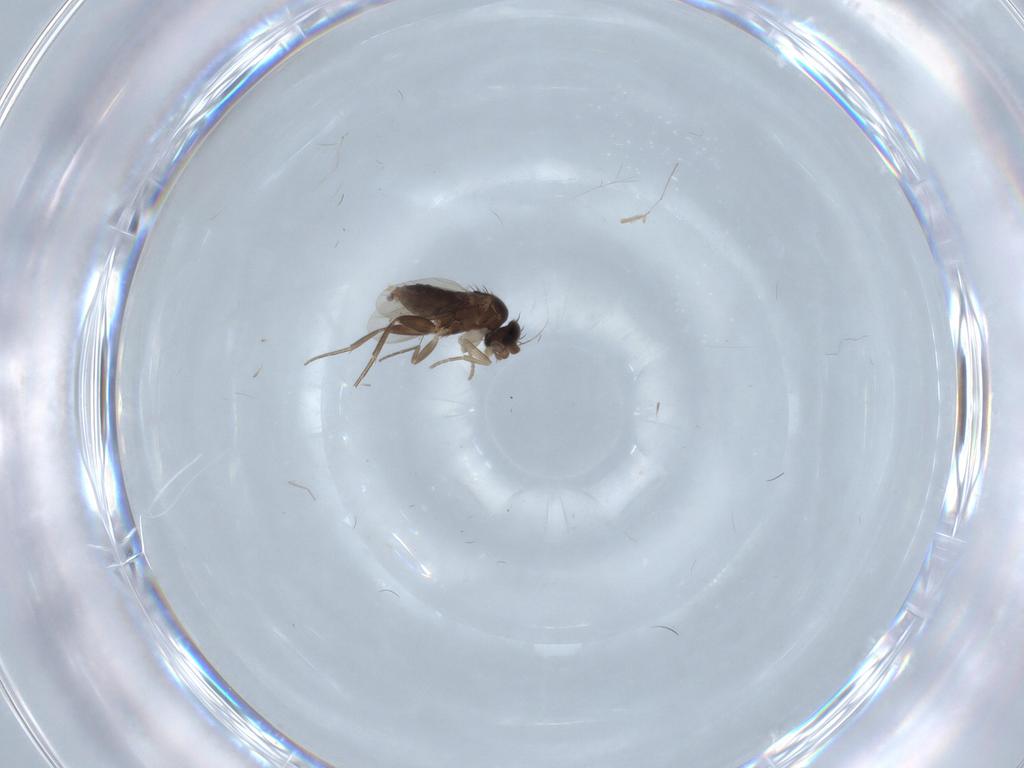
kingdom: Animalia
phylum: Arthropoda
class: Insecta
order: Diptera
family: Phoridae
